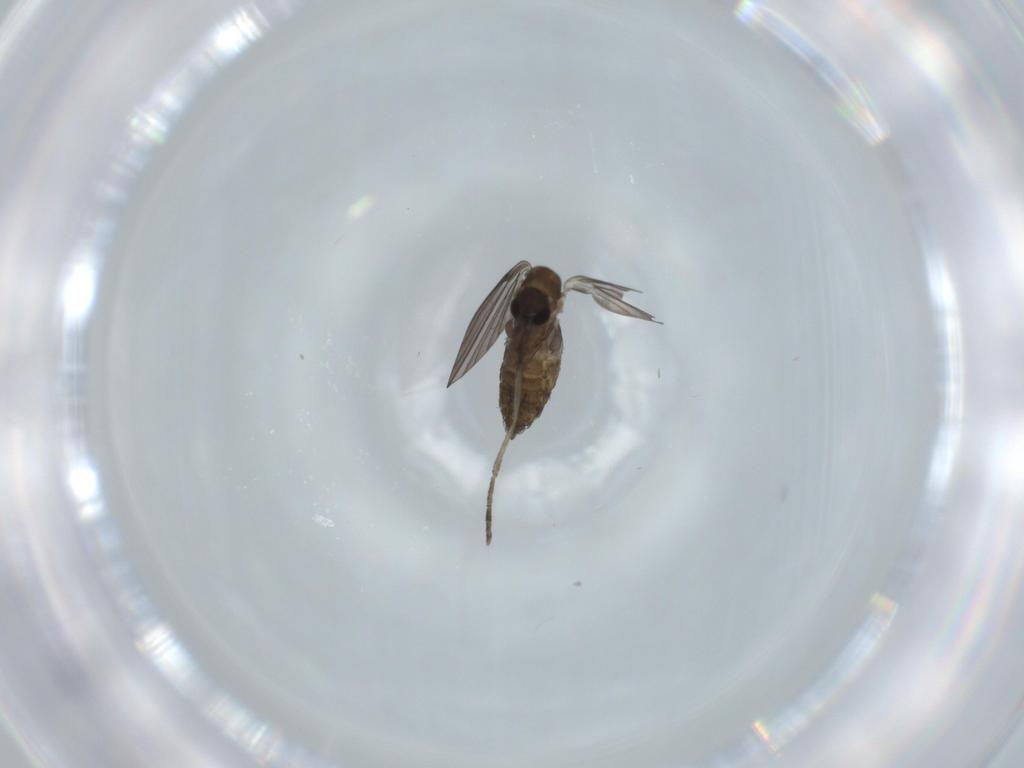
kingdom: Animalia
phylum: Arthropoda
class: Insecta
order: Diptera
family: Psychodidae
